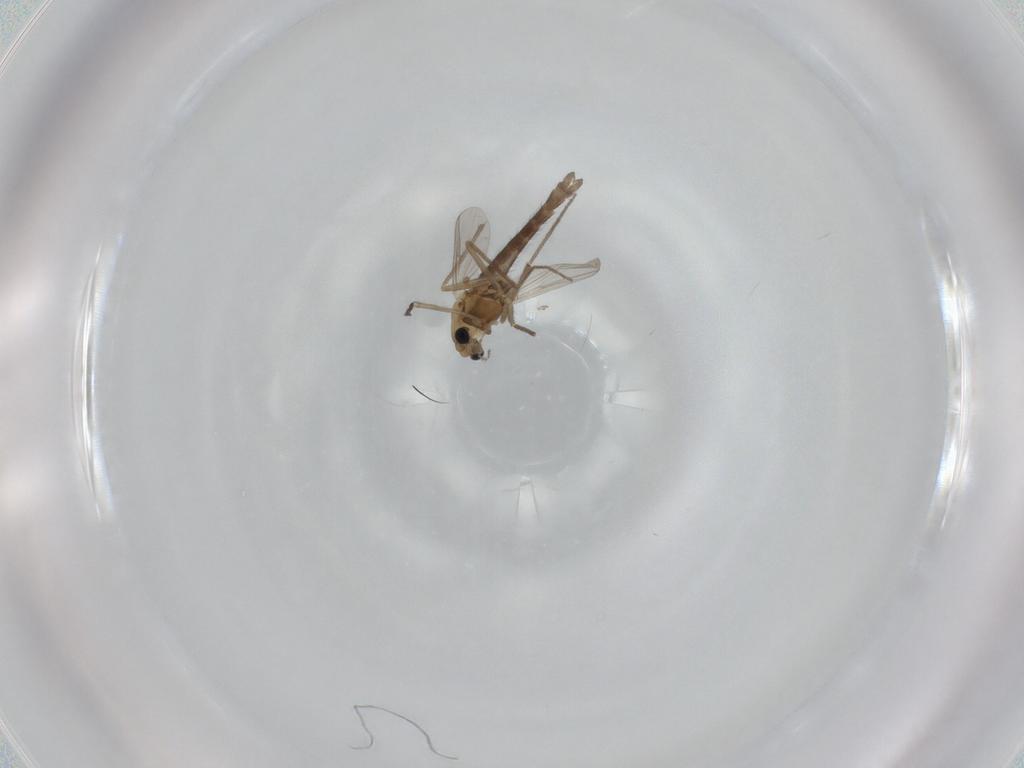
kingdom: Animalia
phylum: Arthropoda
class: Insecta
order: Diptera
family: Chironomidae
